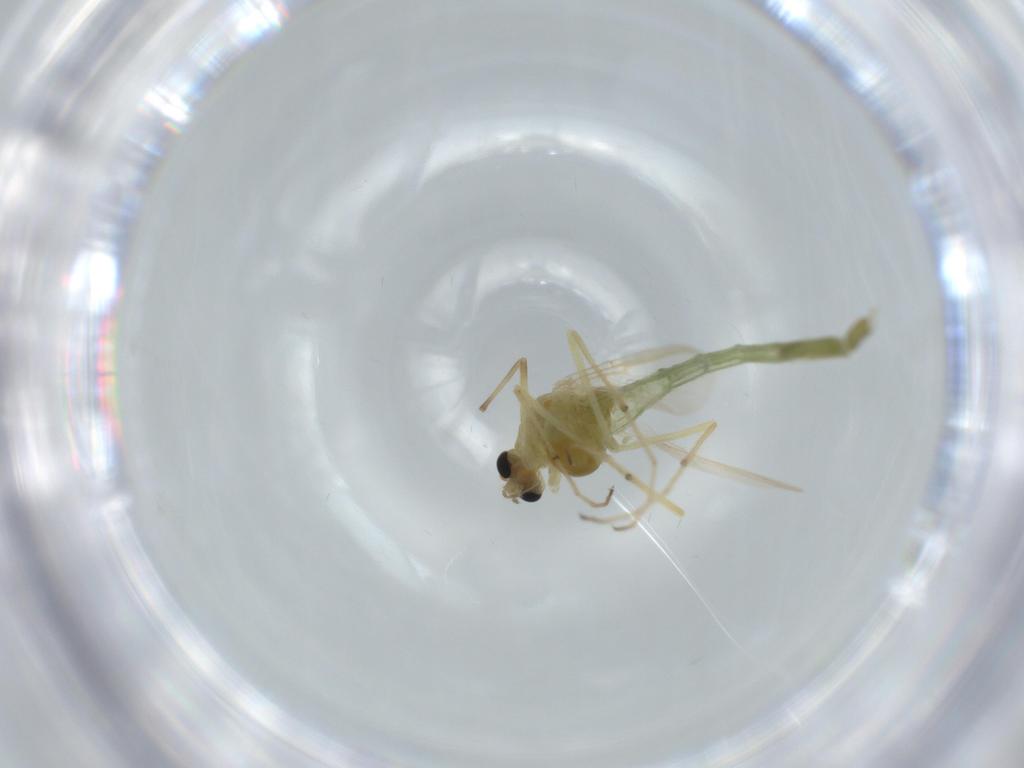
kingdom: Animalia
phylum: Arthropoda
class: Insecta
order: Diptera
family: Chironomidae
